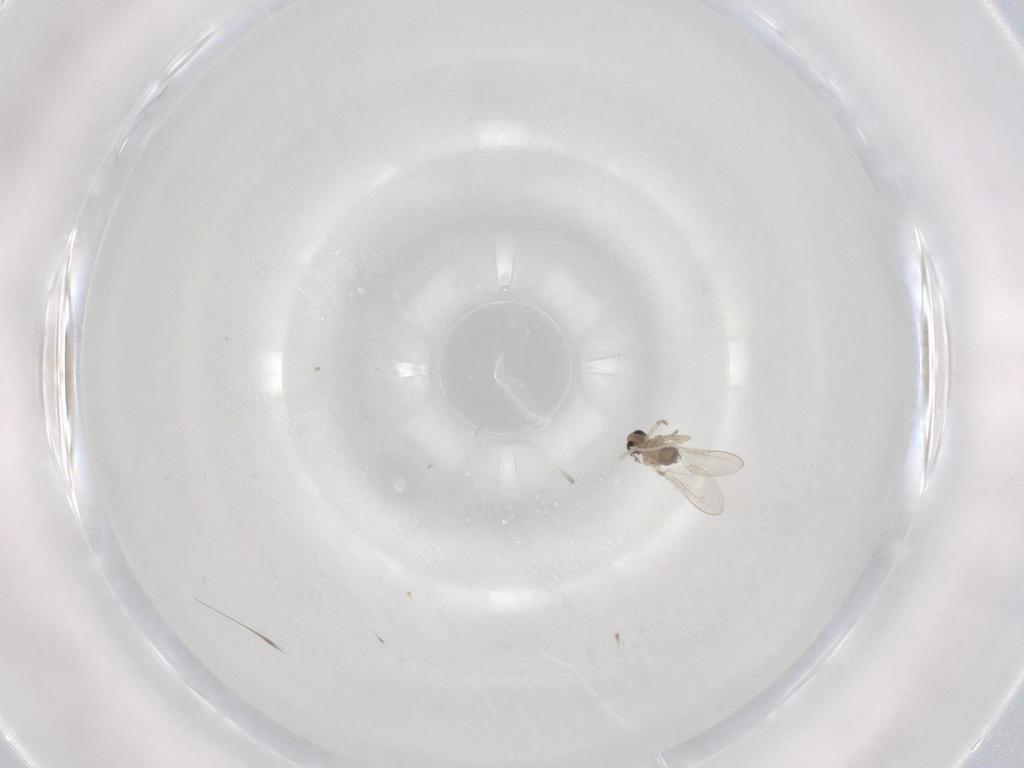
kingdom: Animalia
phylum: Arthropoda
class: Insecta
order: Diptera
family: Cecidomyiidae
